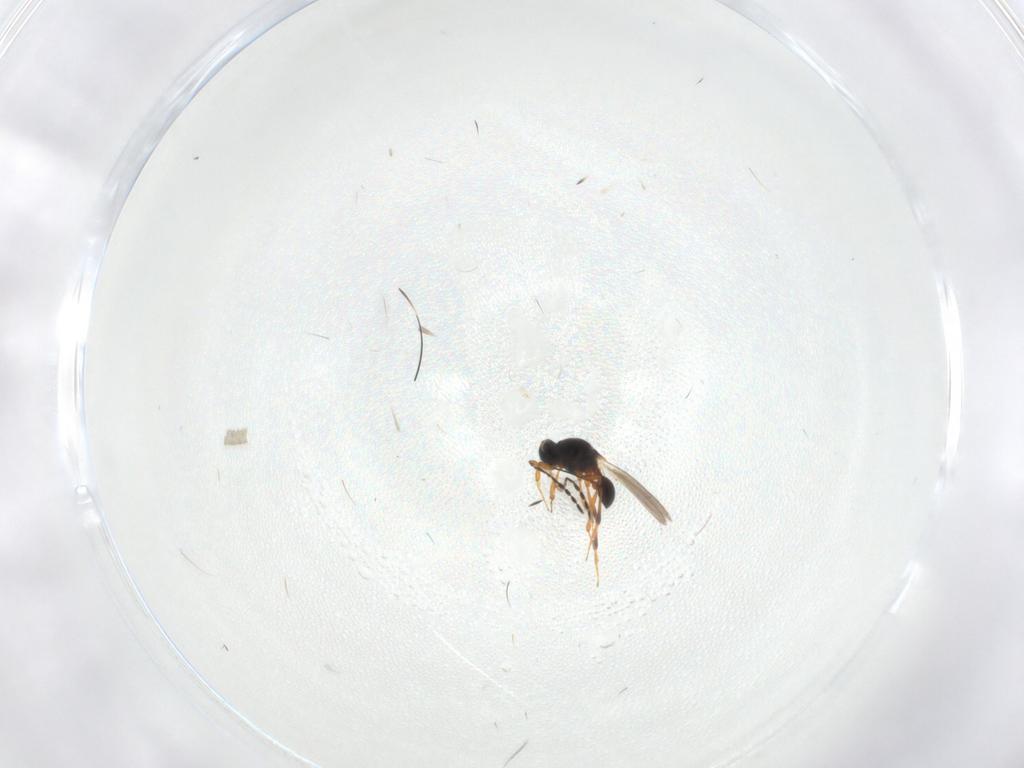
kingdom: Animalia
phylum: Arthropoda
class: Insecta
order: Hymenoptera
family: Platygastridae
